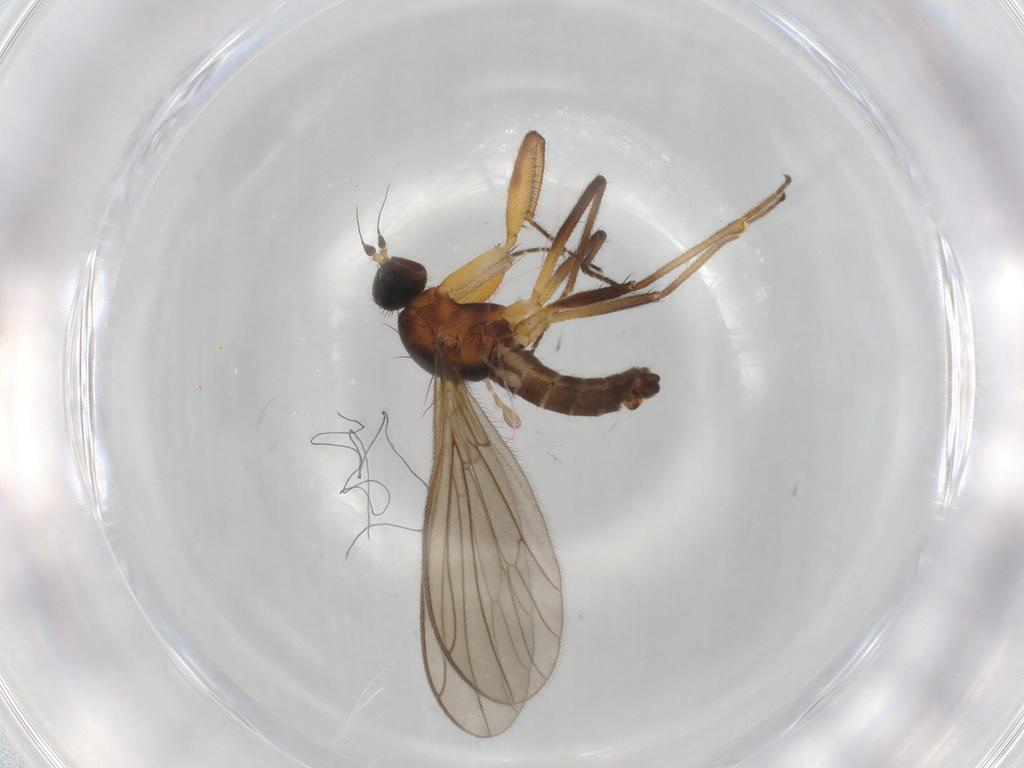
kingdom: Animalia
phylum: Arthropoda
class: Insecta
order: Diptera
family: Empididae
